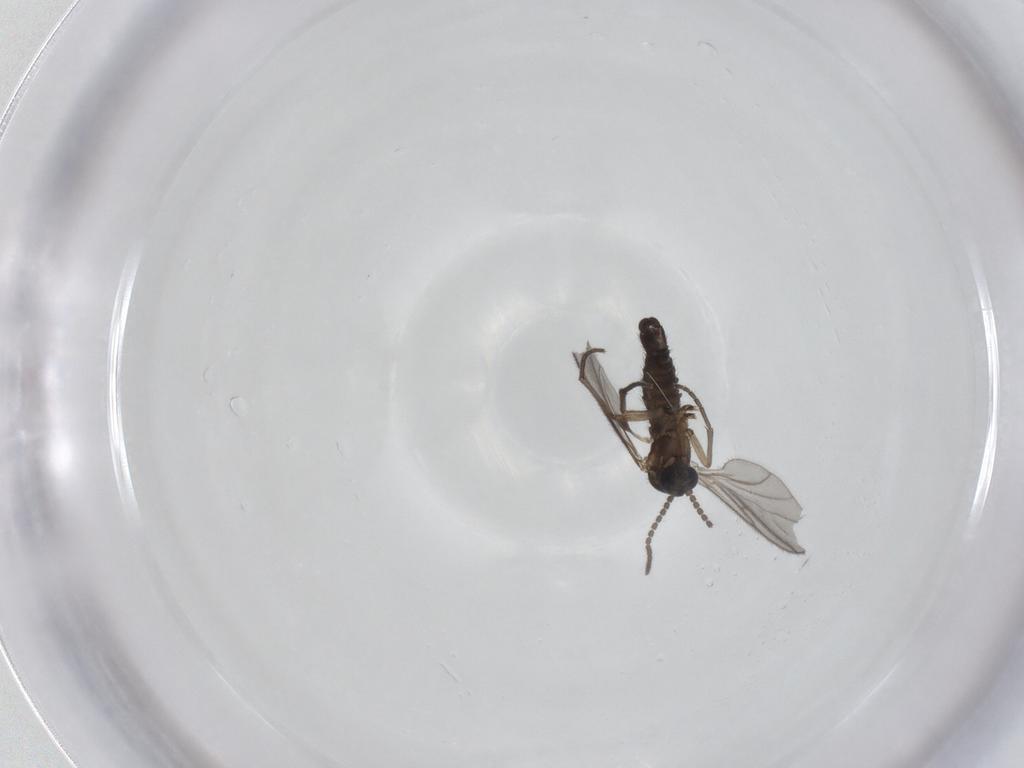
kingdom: Animalia
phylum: Arthropoda
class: Insecta
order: Diptera
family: Sciaridae
